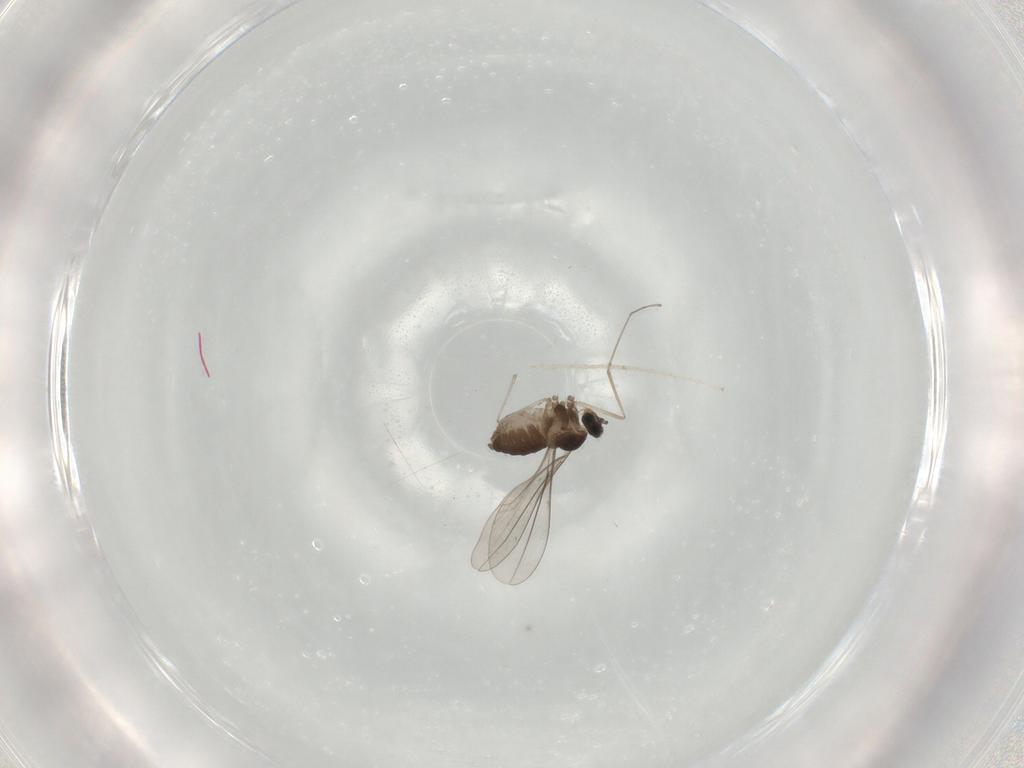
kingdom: Animalia
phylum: Arthropoda
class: Insecta
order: Diptera
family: Cecidomyiidae
